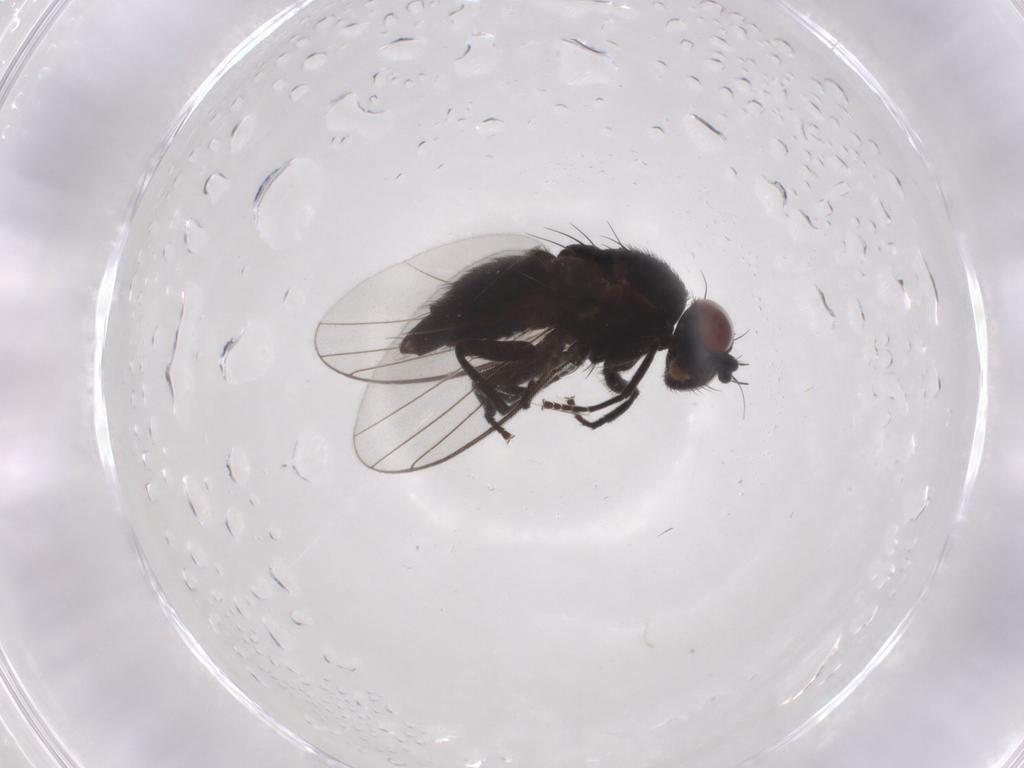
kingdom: Animalia
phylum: Arthropoda
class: Insecta
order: Diptera
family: Agromyzidae
